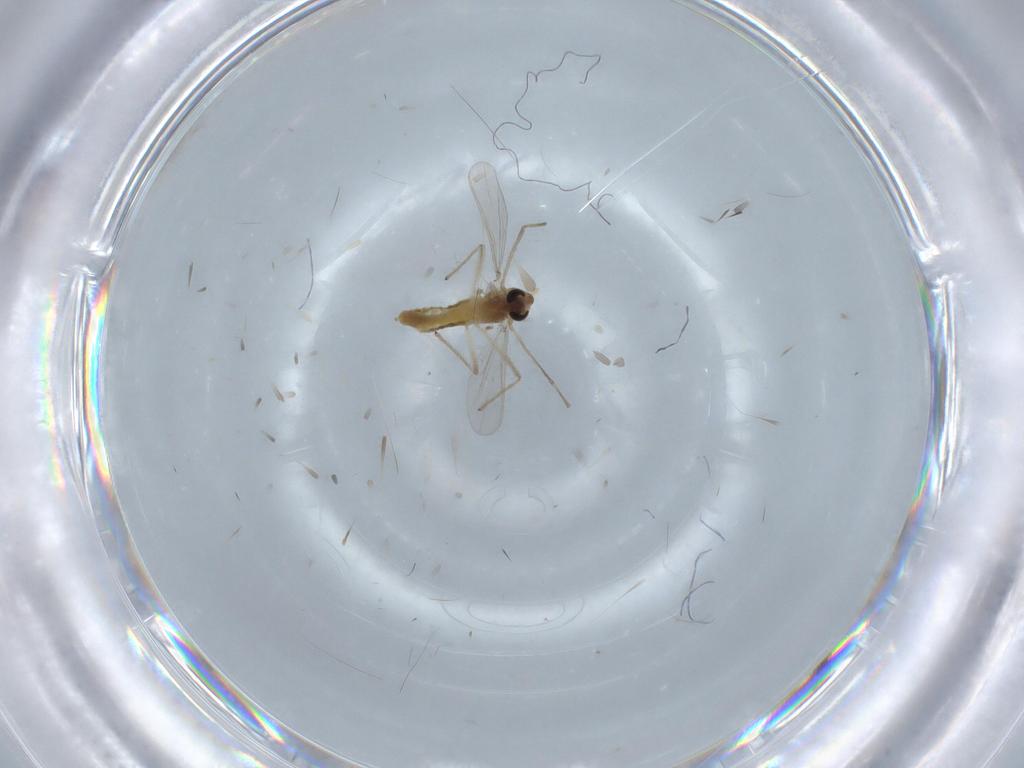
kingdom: Animalia
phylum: Arthropoda
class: Insecta
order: Diptera
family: Chironomidae
